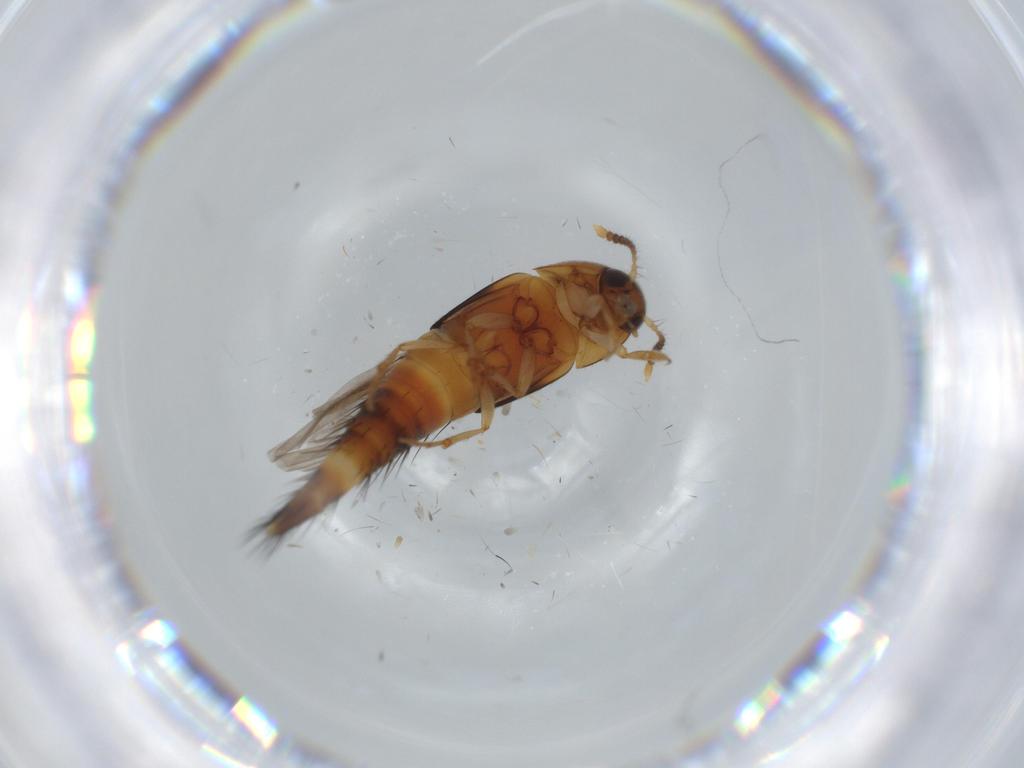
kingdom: Animalia
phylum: Arthropoda
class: Insecta
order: Coleoptera
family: Staphylinidae
